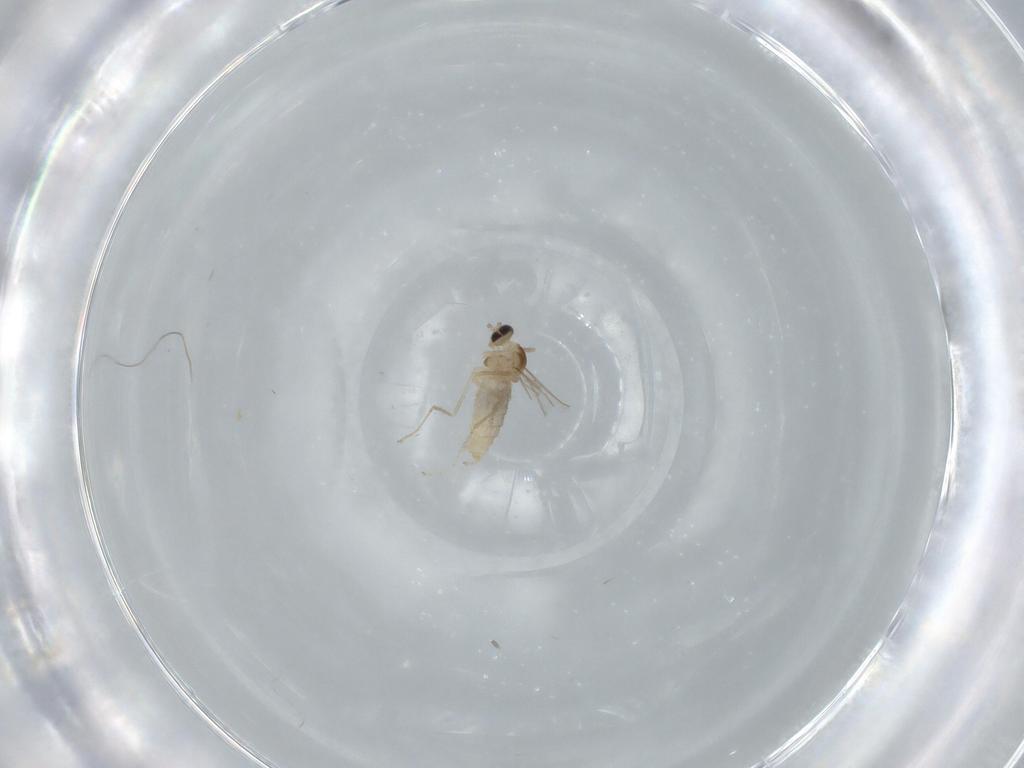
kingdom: Animalia
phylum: Arthropoda
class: Insecta
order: Diptera
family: Cecidomyiidae
